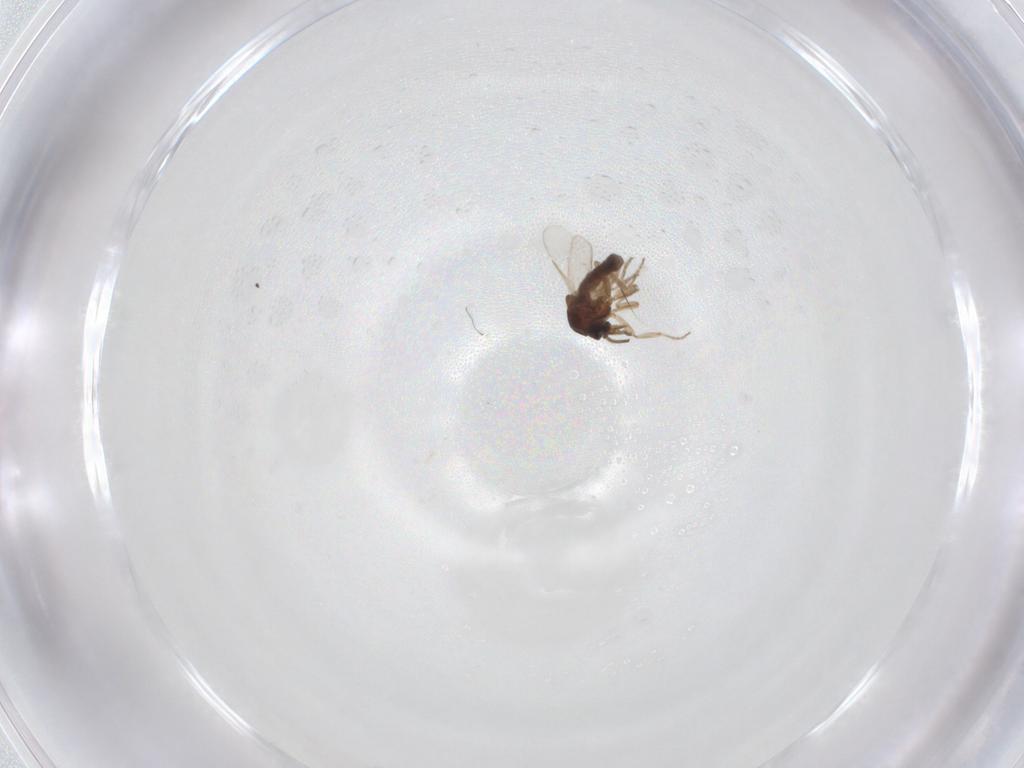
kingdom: Animalia
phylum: Arthropoda
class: Insecta
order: Diptera
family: Ceratopogonidae
